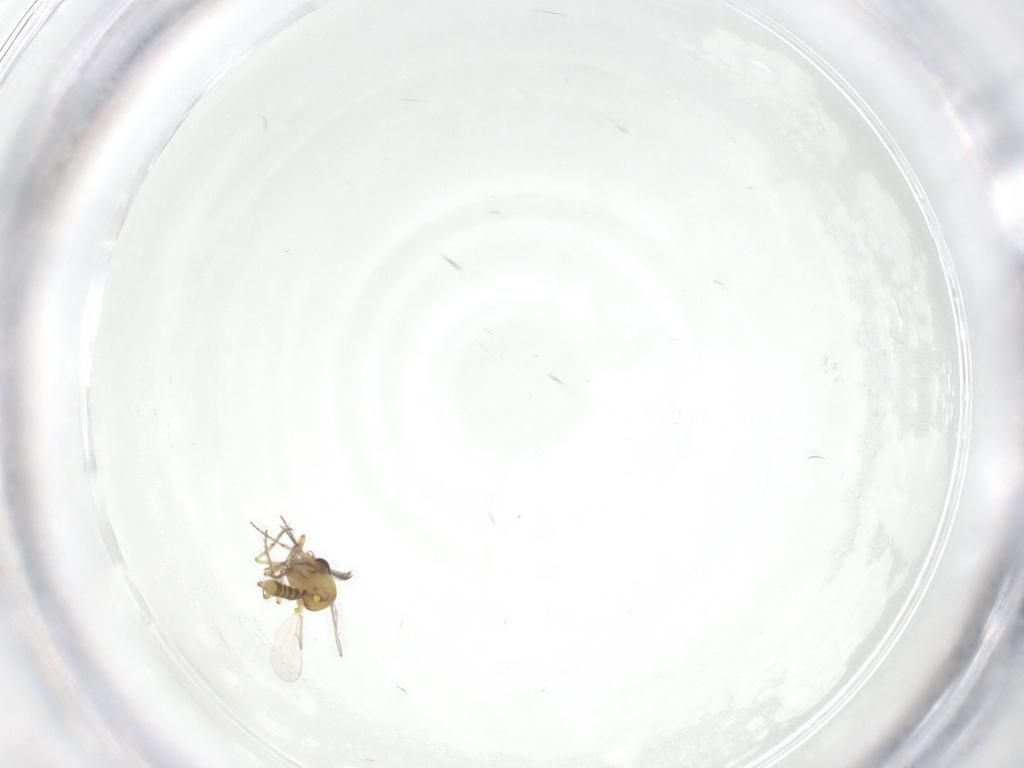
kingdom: Animalia
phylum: Arthropoda
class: Insecta
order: Diptera
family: Ceratopogonidae
